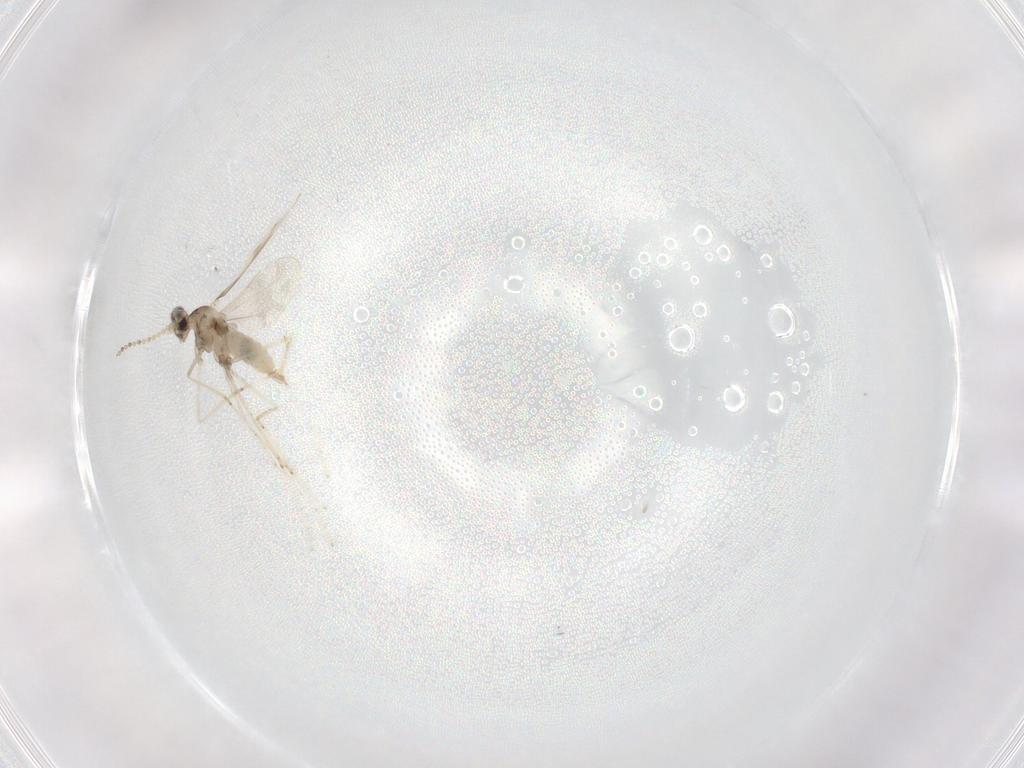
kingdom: Animalia
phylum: Arthropoda
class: Insecta
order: Diptera
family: Cecidomyiidae
